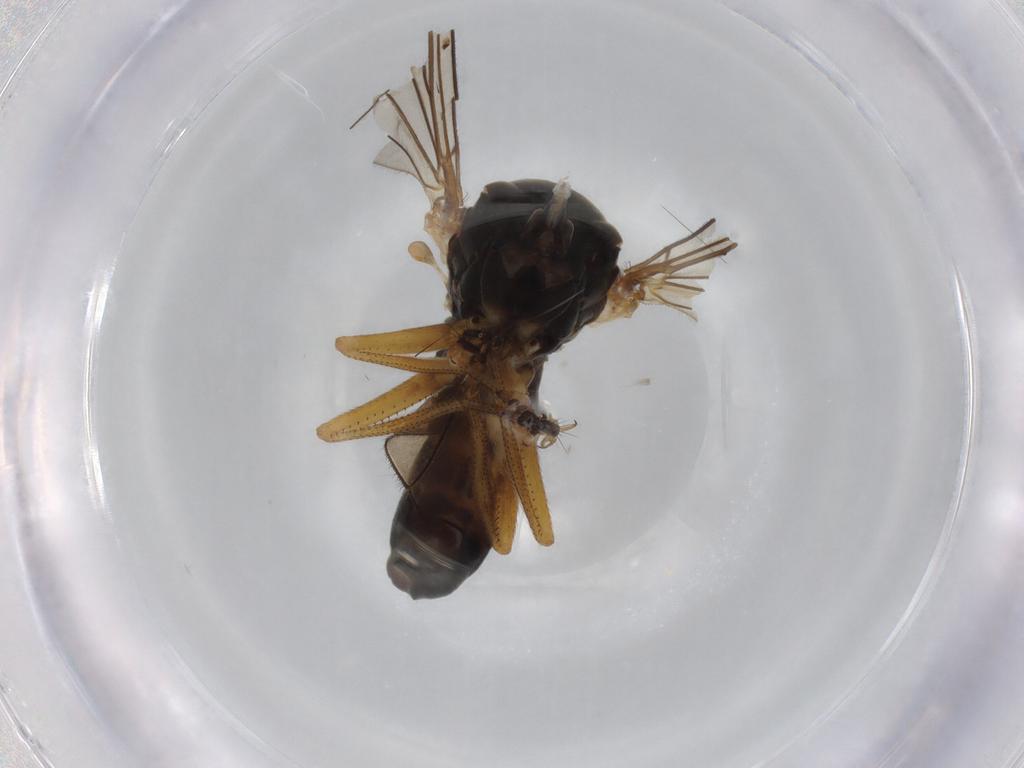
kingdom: Animalia
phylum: Arthropoda
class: Insecta
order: Diptera
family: Pipunculidae
